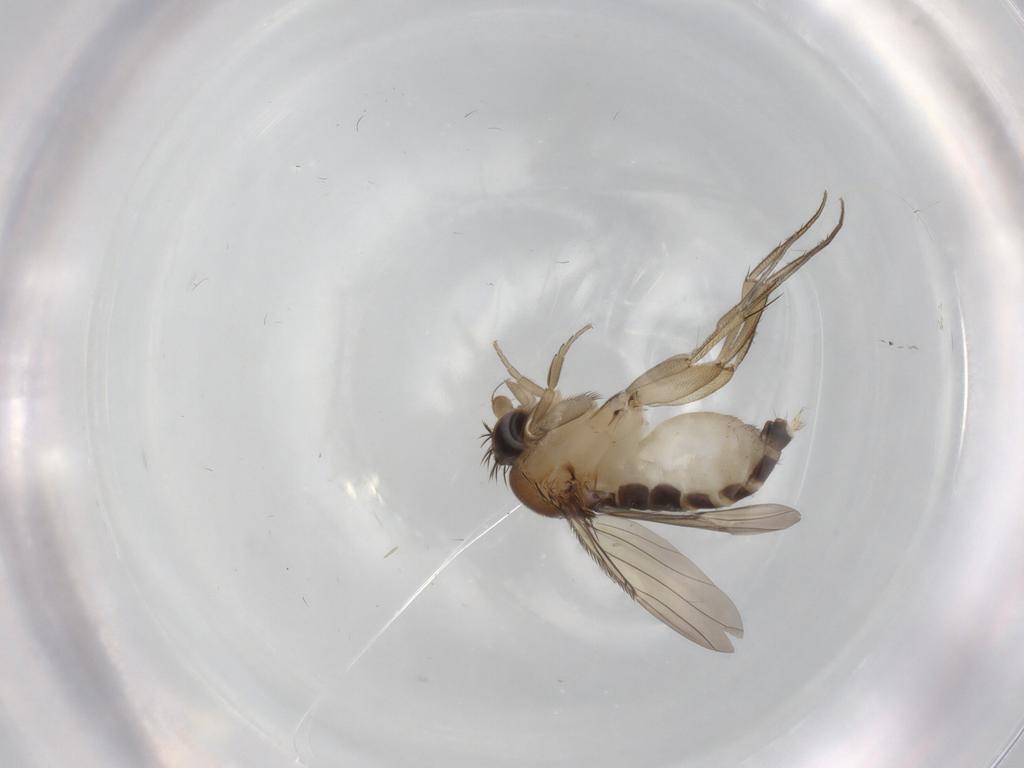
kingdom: Animalia
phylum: Arthropoda
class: Insecta
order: Diptera
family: Phoridae
